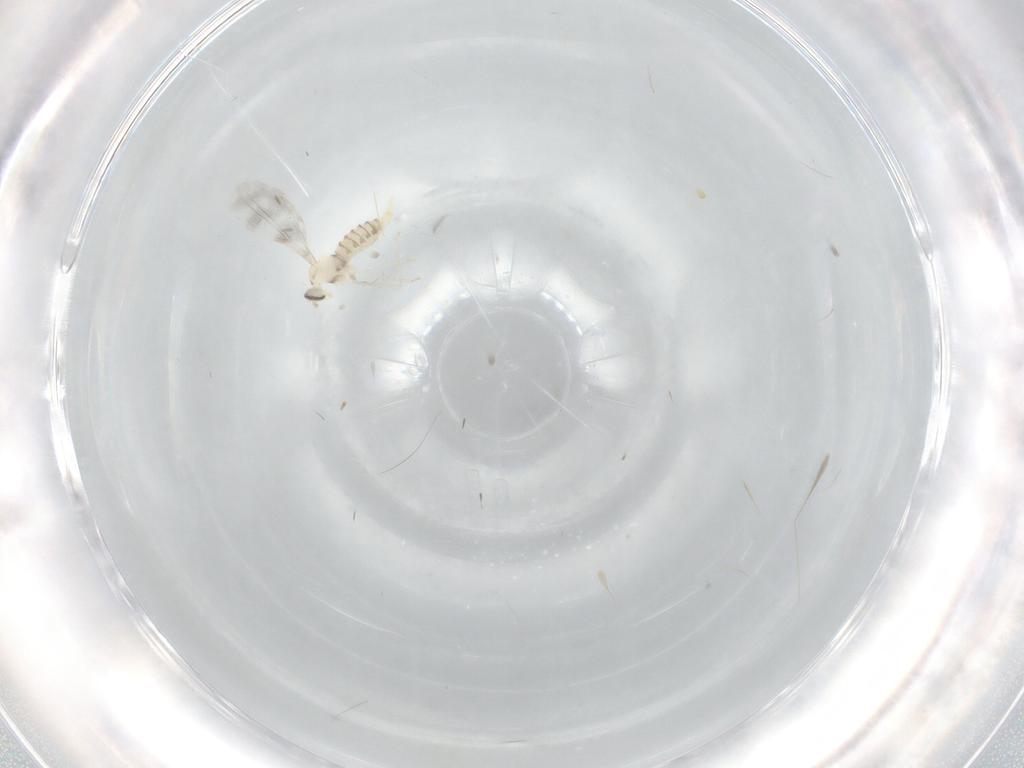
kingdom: Animalia
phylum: Arthropoda
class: Insecta
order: Diptera
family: Cecidomyiidae
